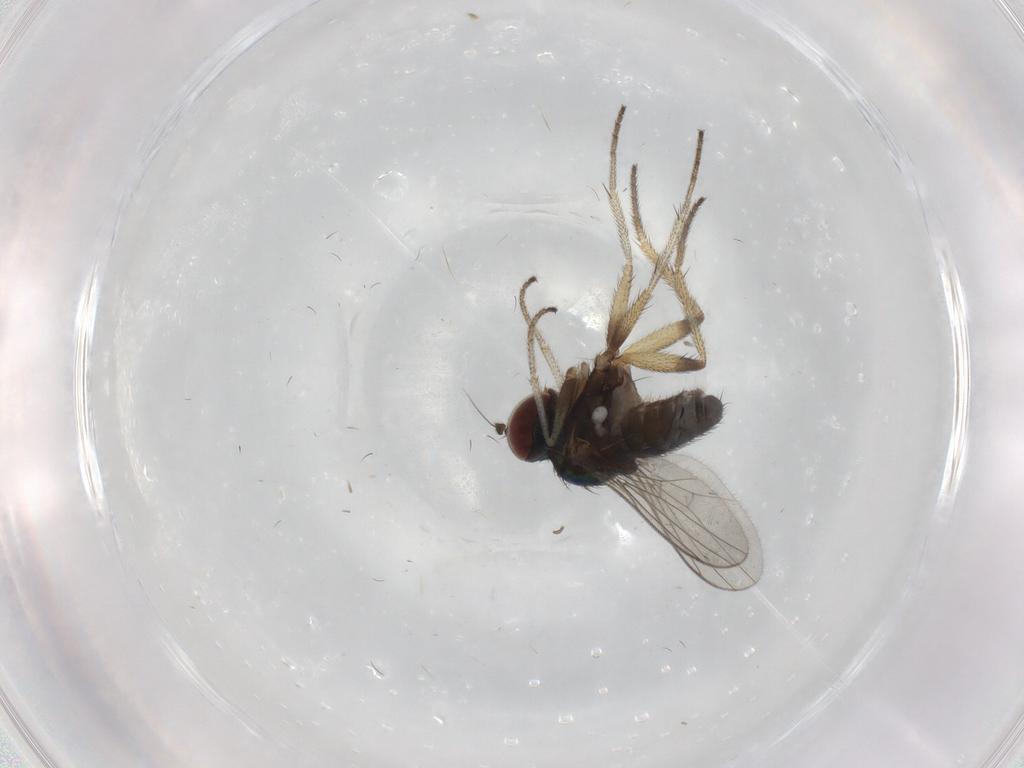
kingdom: Animalia
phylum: Arthropoda
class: Insecta
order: Diptera
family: Dolichopodidae
